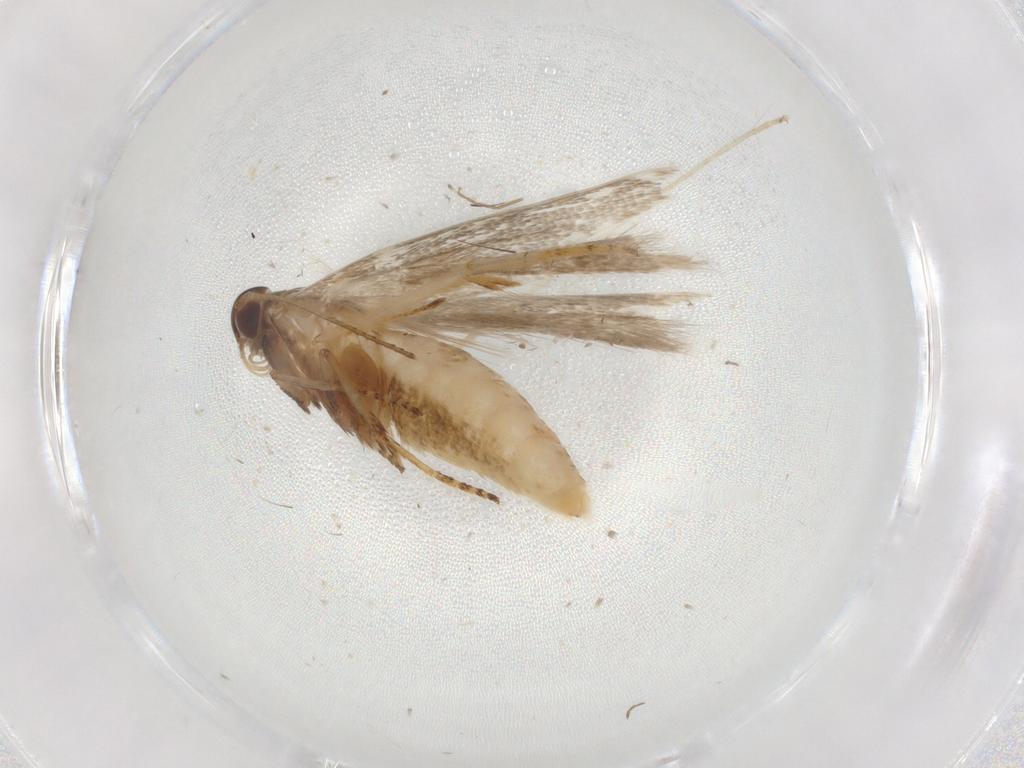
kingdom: Animalia
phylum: Arthropoda
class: Insecta
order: Lepidoptera
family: Gelechiidae
